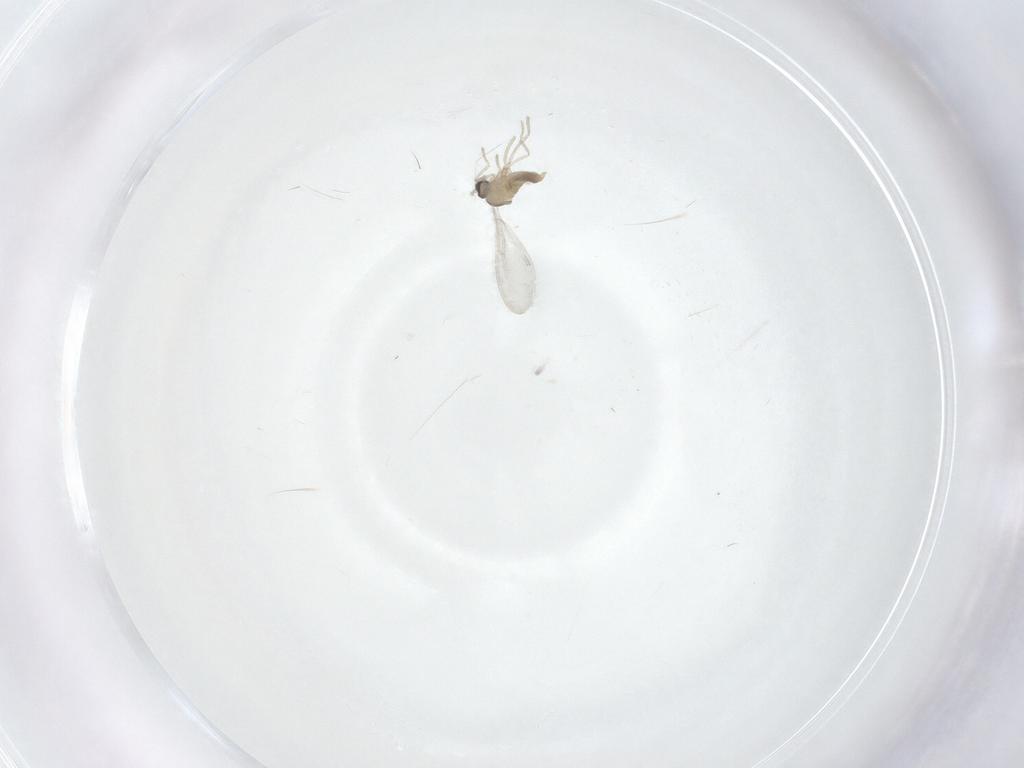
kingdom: Animalia
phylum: Arthropoda
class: Insecta
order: Diptera
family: Cecidomyiidae
